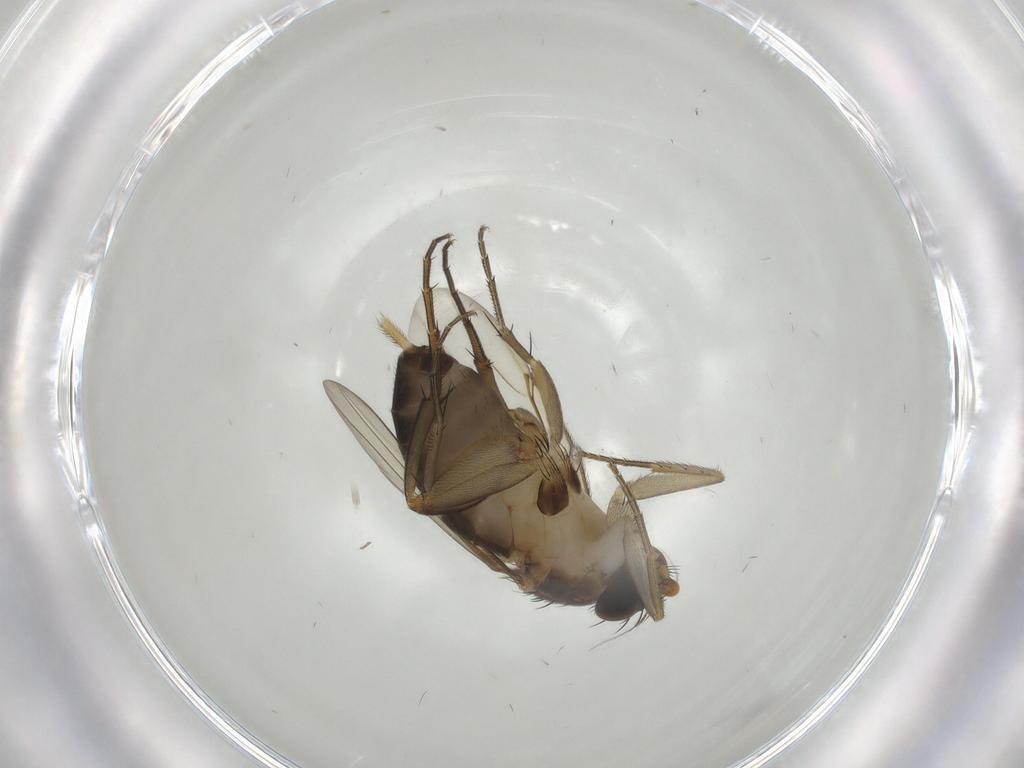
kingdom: Animalia
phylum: Arthropoda
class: Insecta
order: Diptera
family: Phoridae
